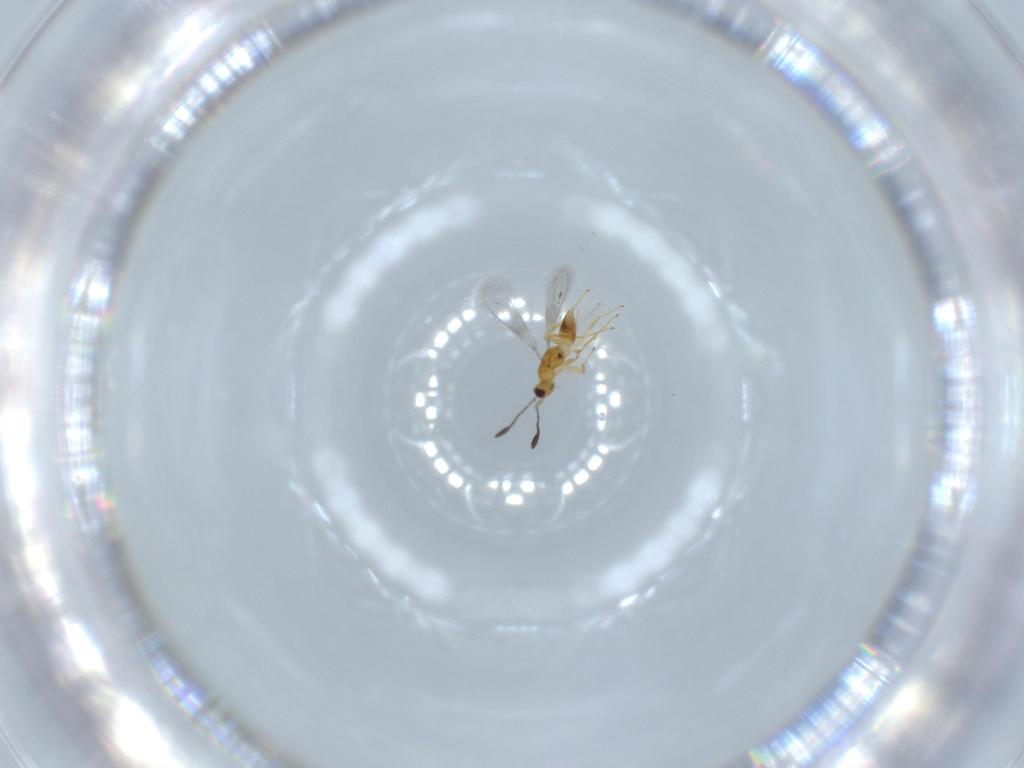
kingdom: Animalia
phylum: Arthropoda
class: Insecta
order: Hymenoptera
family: Mymaridae
